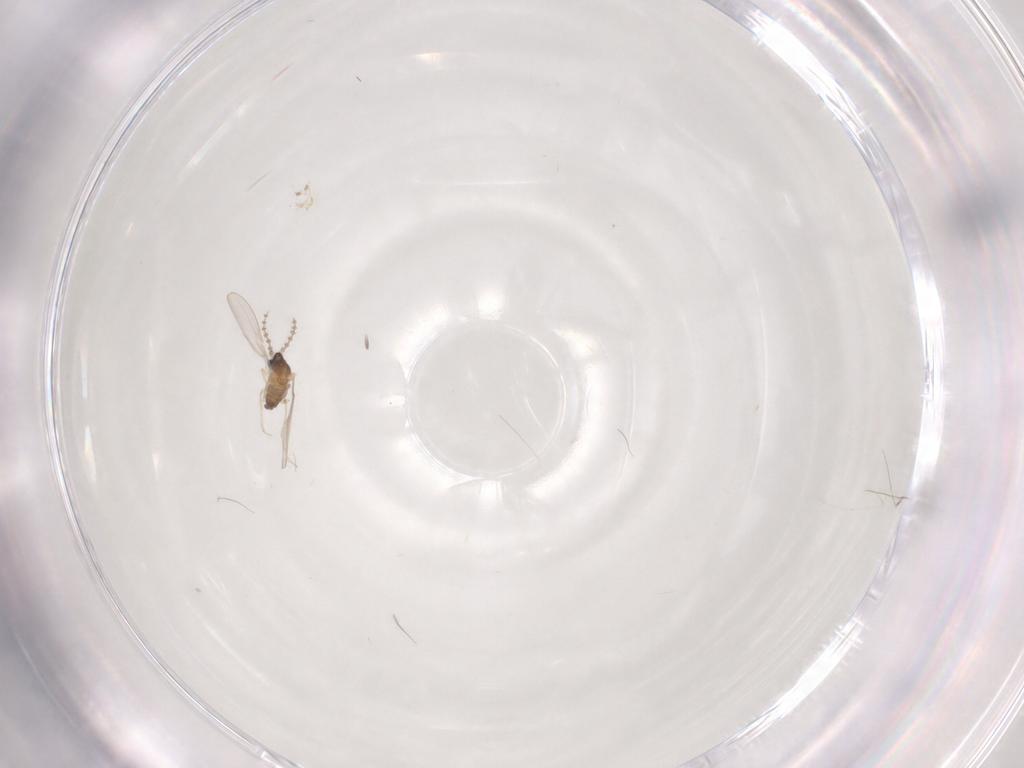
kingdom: Animalia
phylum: Arthropoda
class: Insecta
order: Diptera
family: Cecidomyiidae
